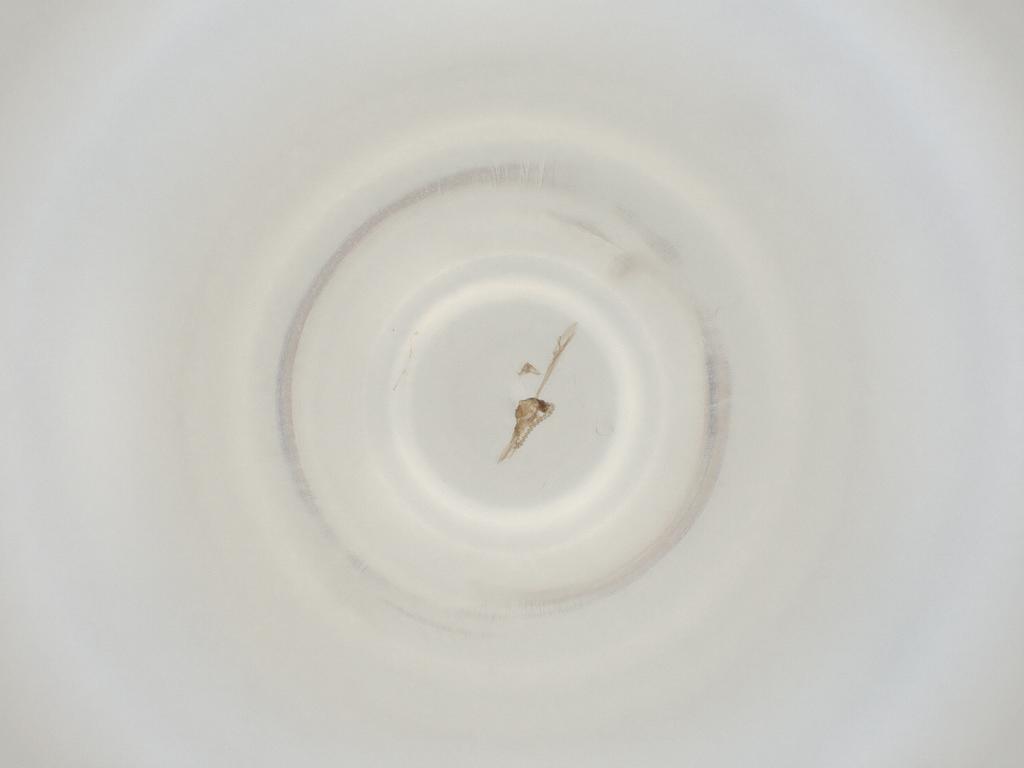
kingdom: Animalia
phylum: Arthropoda
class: Insecta
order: Diptera
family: Cecidomyiidae
